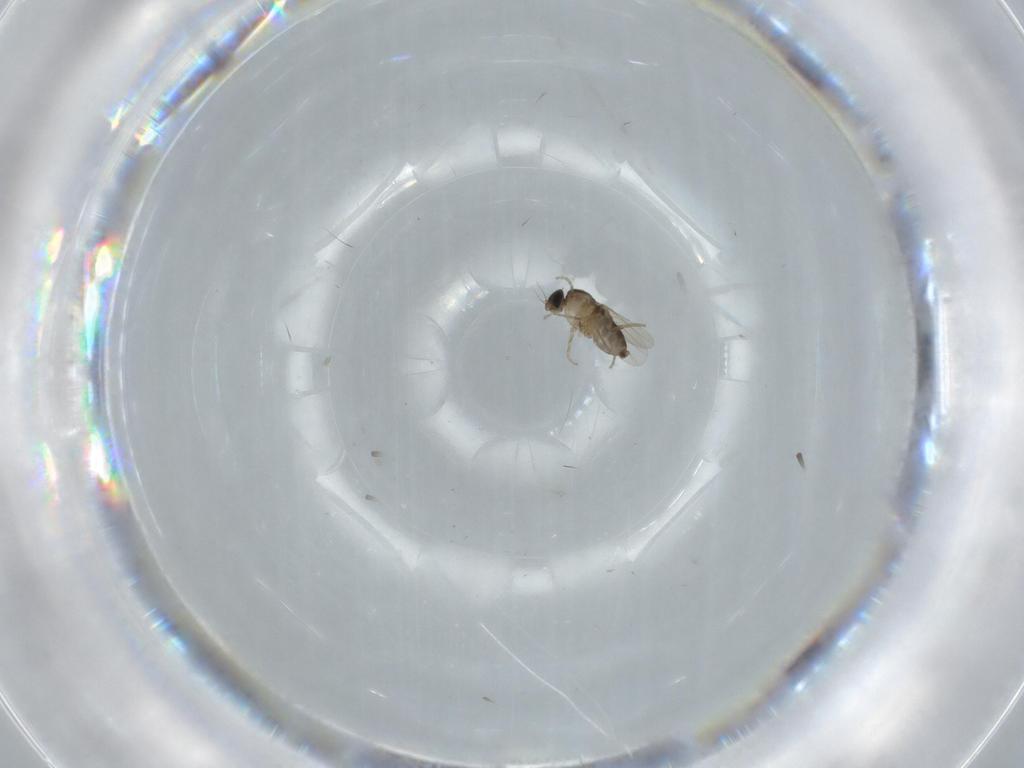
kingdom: Animalia
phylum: Arthropoda
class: Insecta
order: Diptera
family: Phoridae
